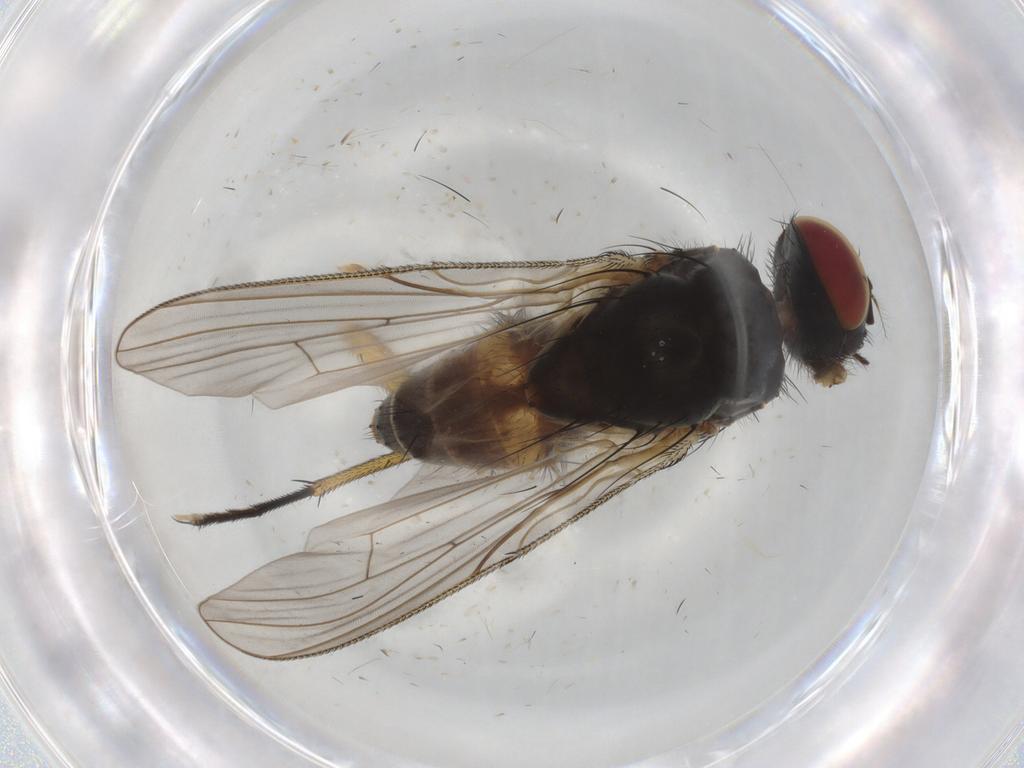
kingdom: Animalia
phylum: Arthropoda
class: Insecta
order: Diptera
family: Muscidae
